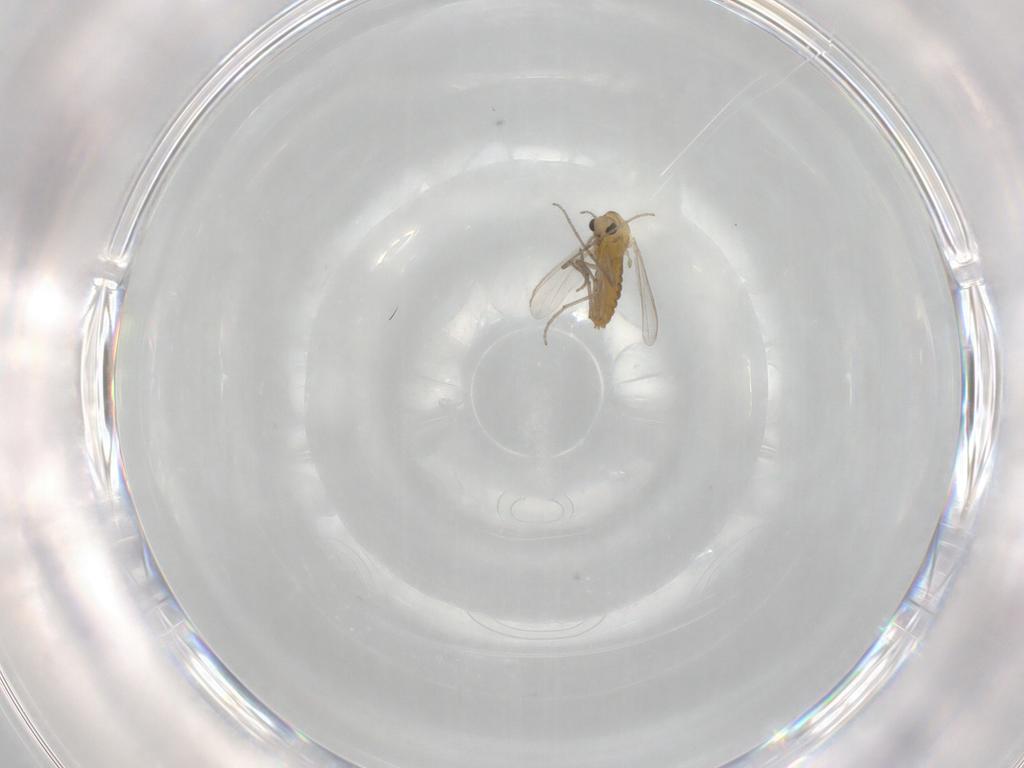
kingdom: Animalia
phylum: Arthropoda
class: Insecta
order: Diptera
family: Chironomidae
